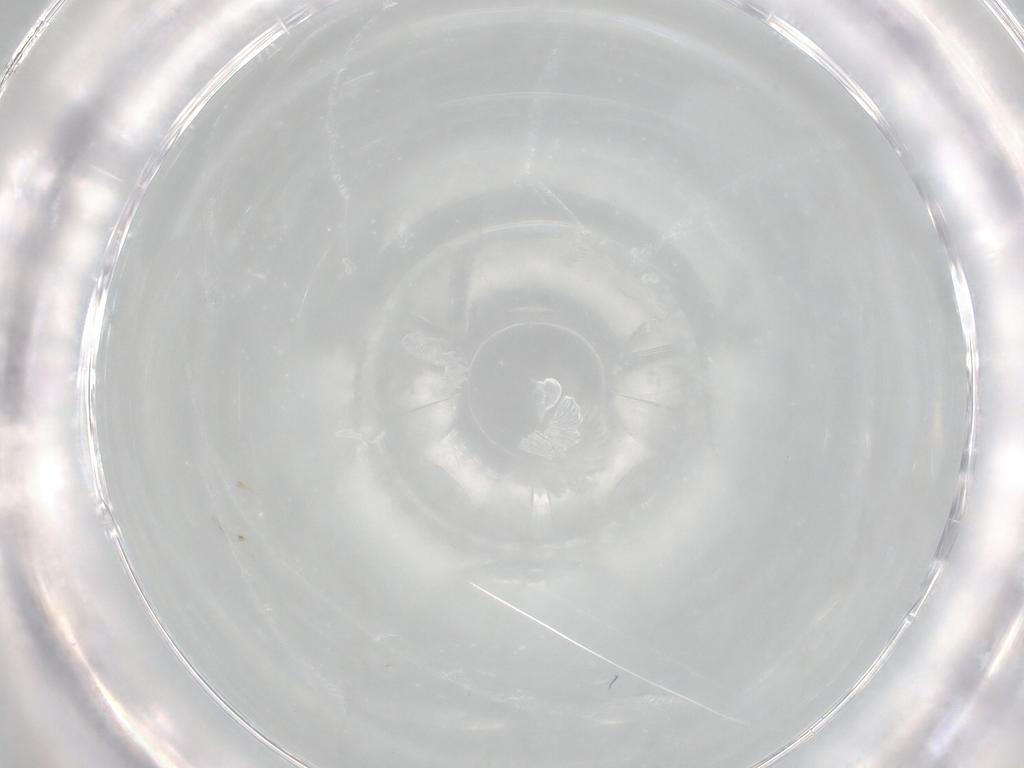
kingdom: Animalia
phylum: Arthropoda
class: Insecta
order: Diptera
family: Sciaridae
